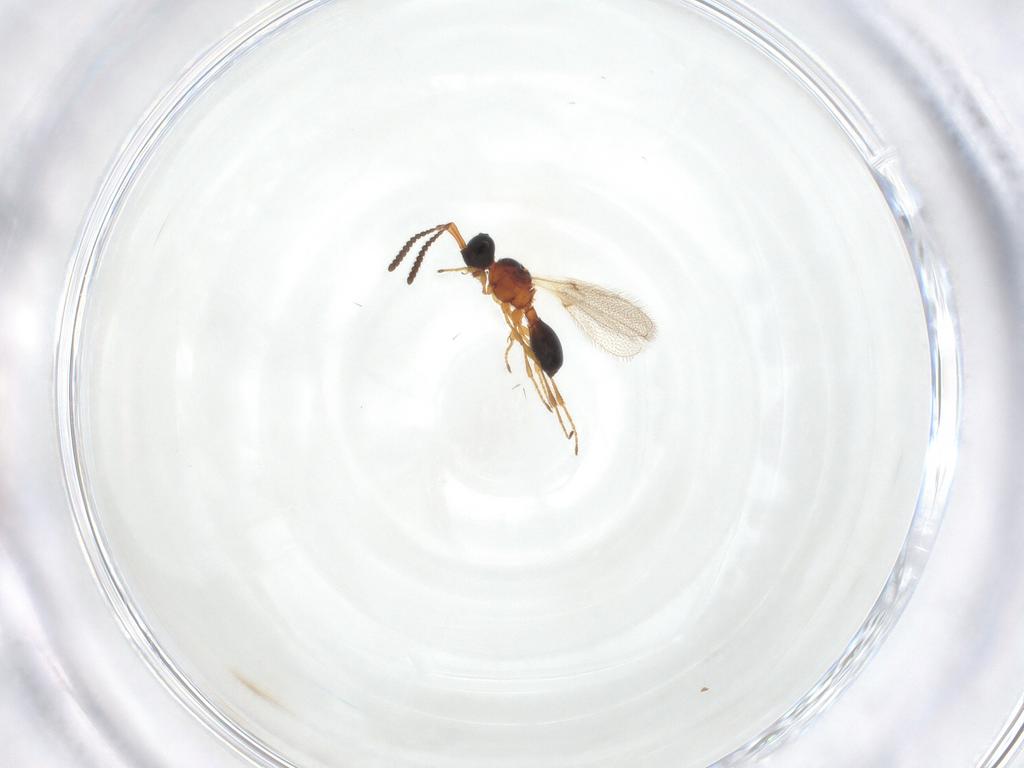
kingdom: Animalia
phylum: Arthropoda
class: Insecta
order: Hymenoptera
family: Diapriidae
